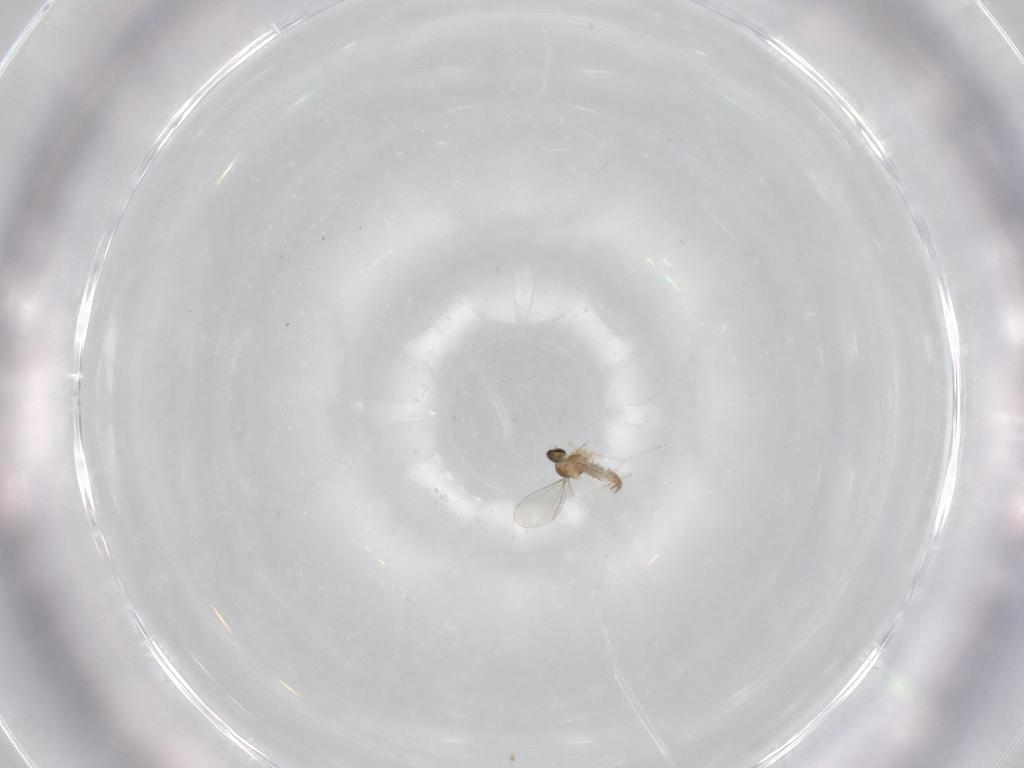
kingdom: Animalia
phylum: Arthropoda
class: Insecta
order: Diptera
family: Cecidomyiidae
